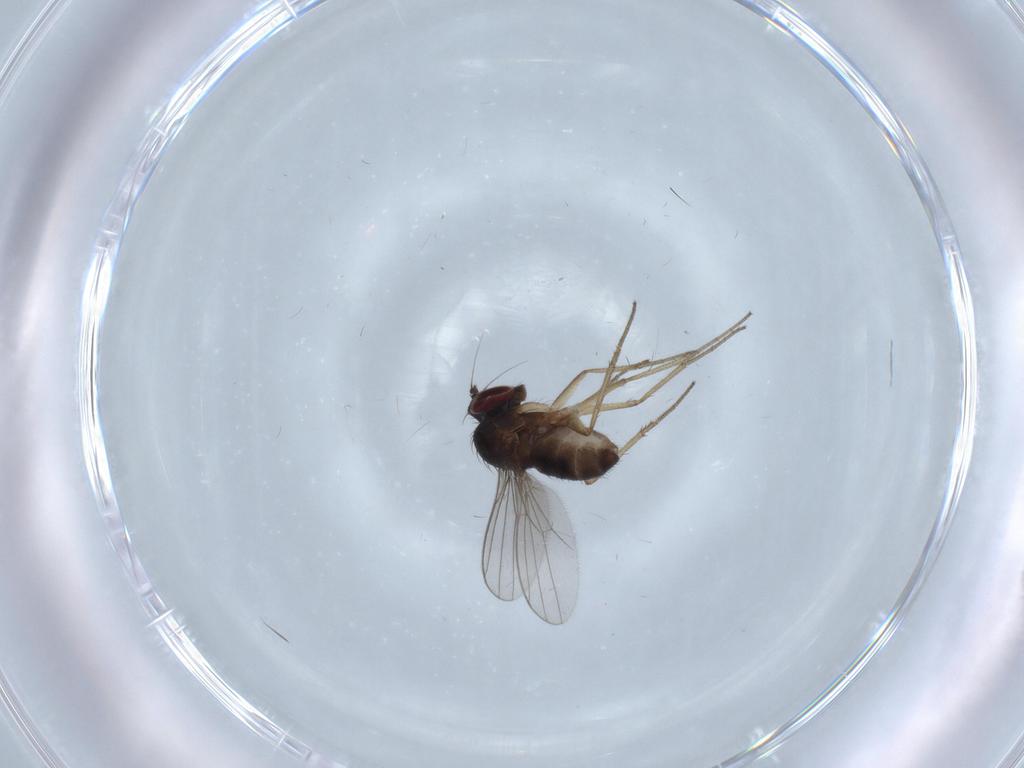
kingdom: Animalia
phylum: Arthropoda
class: Insecta
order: Diptera
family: Dolichopodidae
